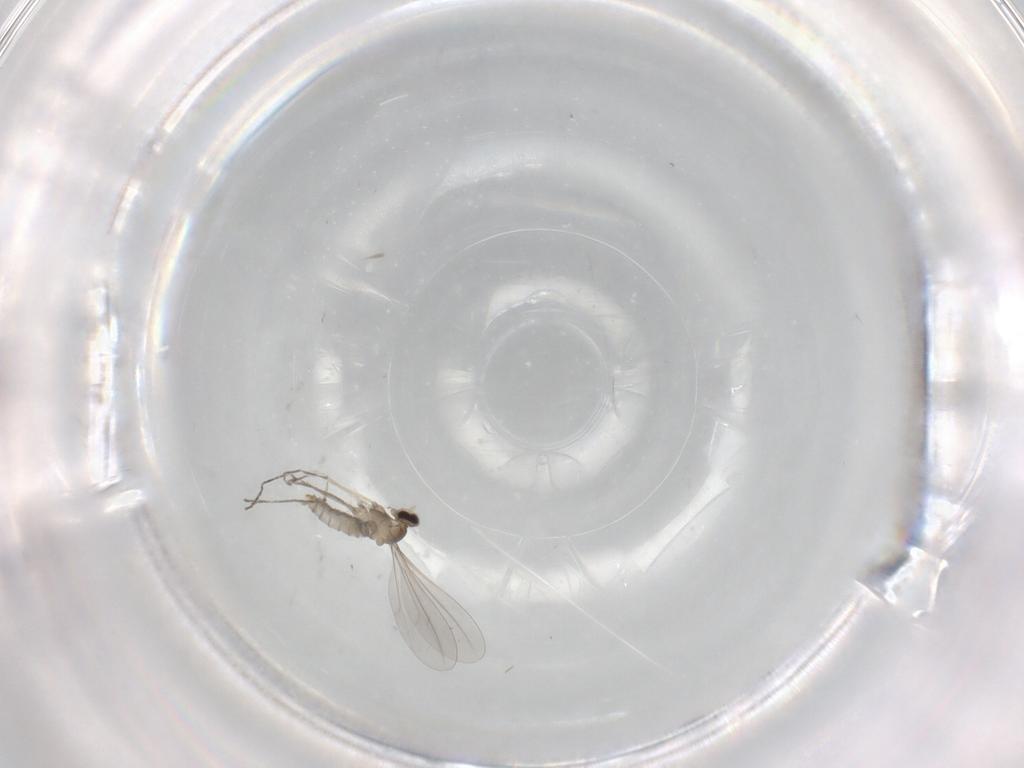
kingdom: Animalia
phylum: Arthropoda
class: Insecta
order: Diptera
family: Cecidomyiidae
